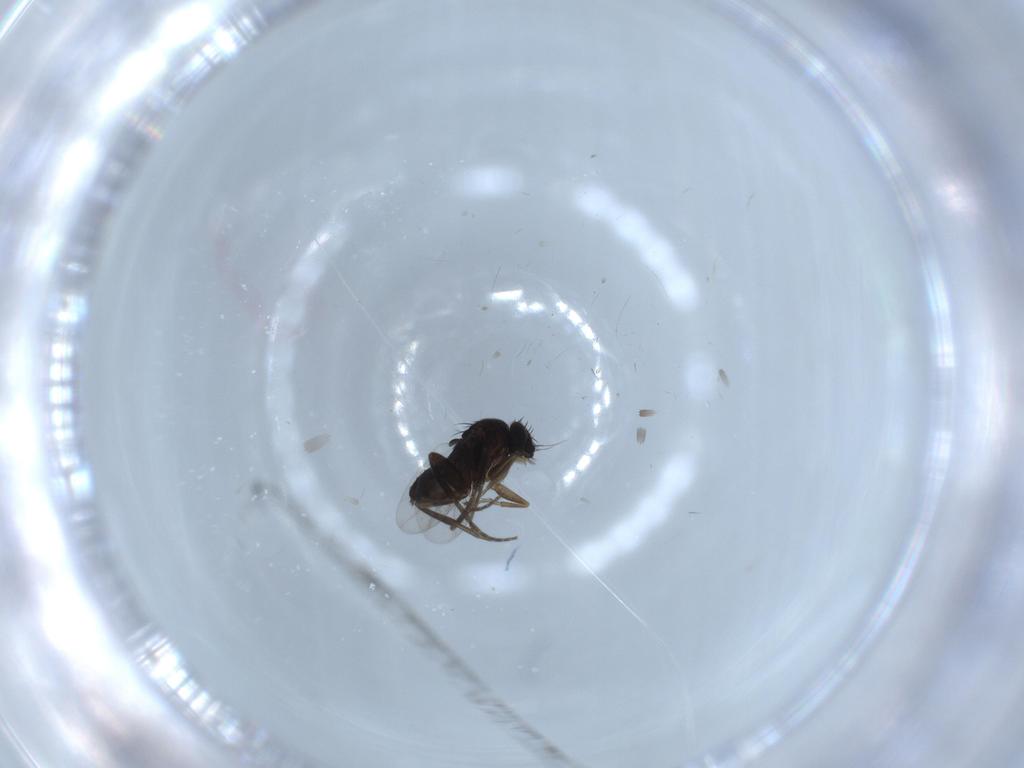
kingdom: Animalia
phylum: Arthropoda
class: Insecta
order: Diptera
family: Phoridae
